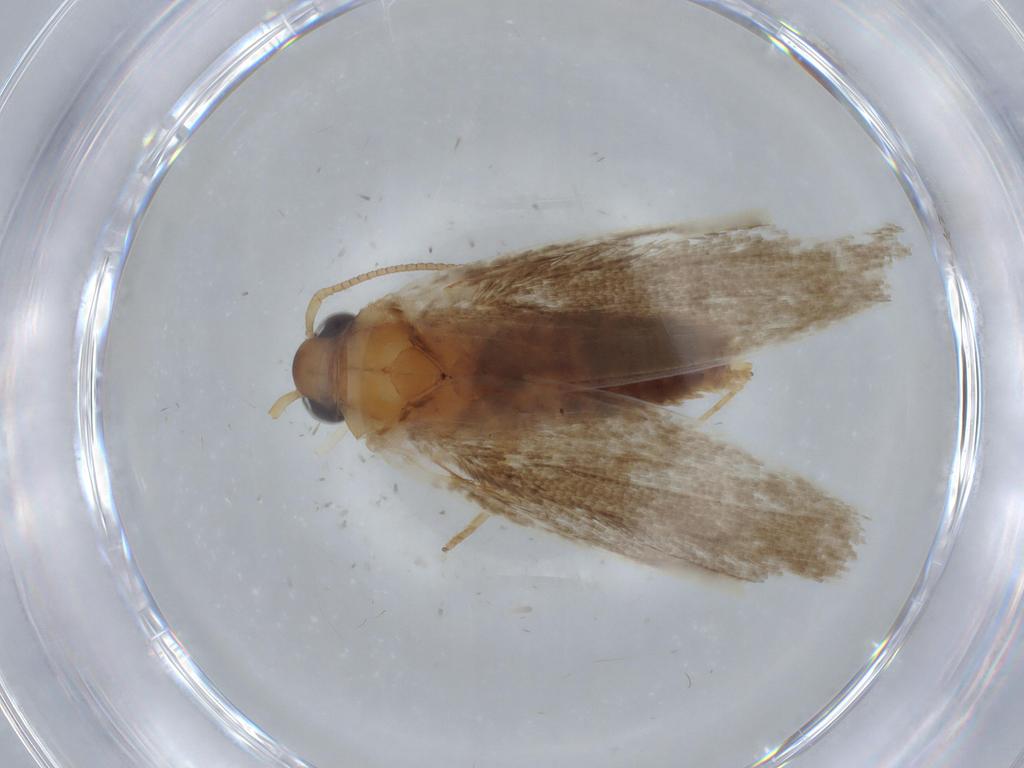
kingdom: Animalia
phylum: Arthropoda
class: Insecta
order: Lepidoptera
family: Blastobasidae
